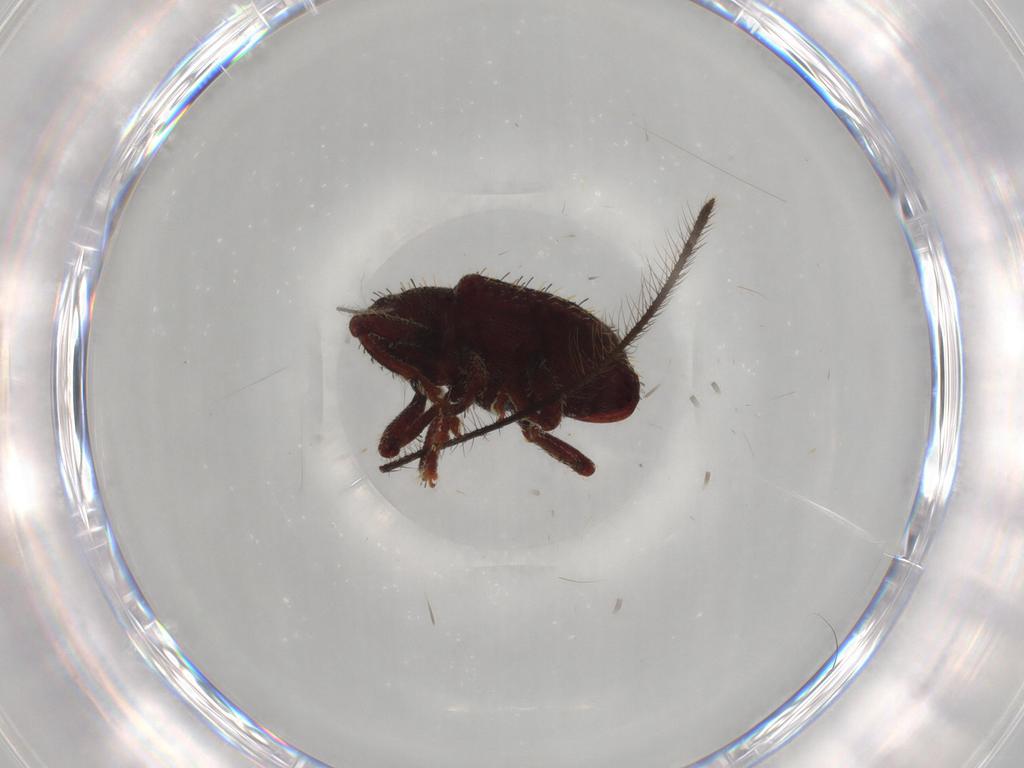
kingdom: Animalia
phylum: Arthropoda
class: Insecta
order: Coleoptera
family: Curculionidae
